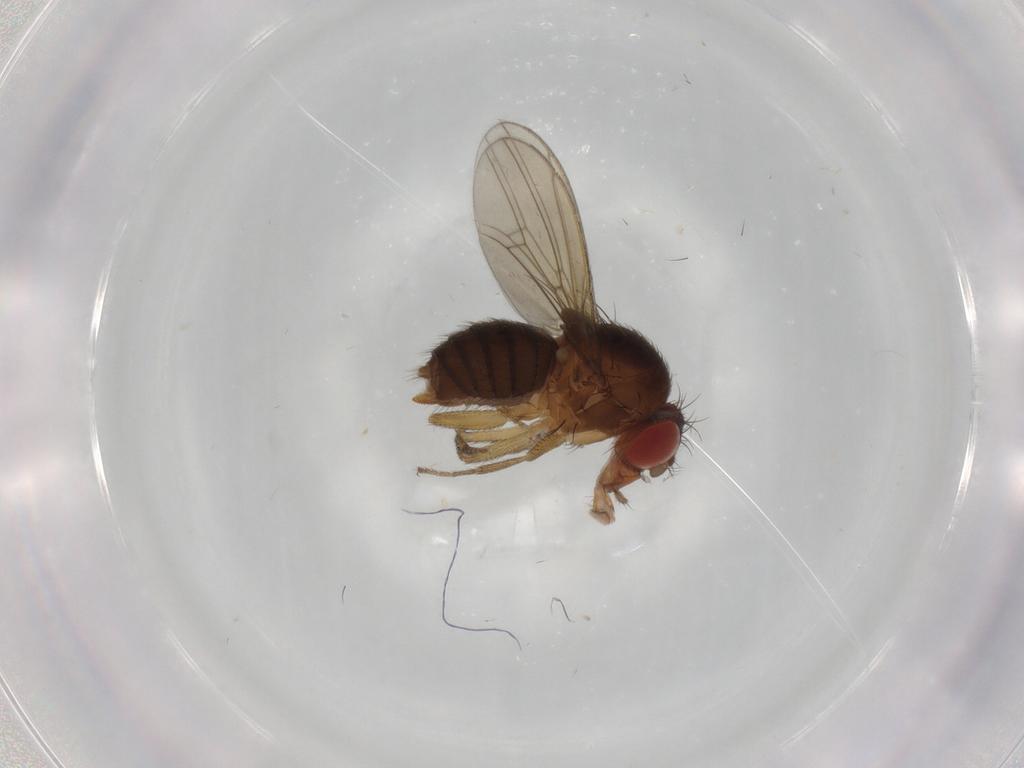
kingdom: Animalia
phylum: Arthropoda
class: Insecta
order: Diptera
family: Drosophilidae
